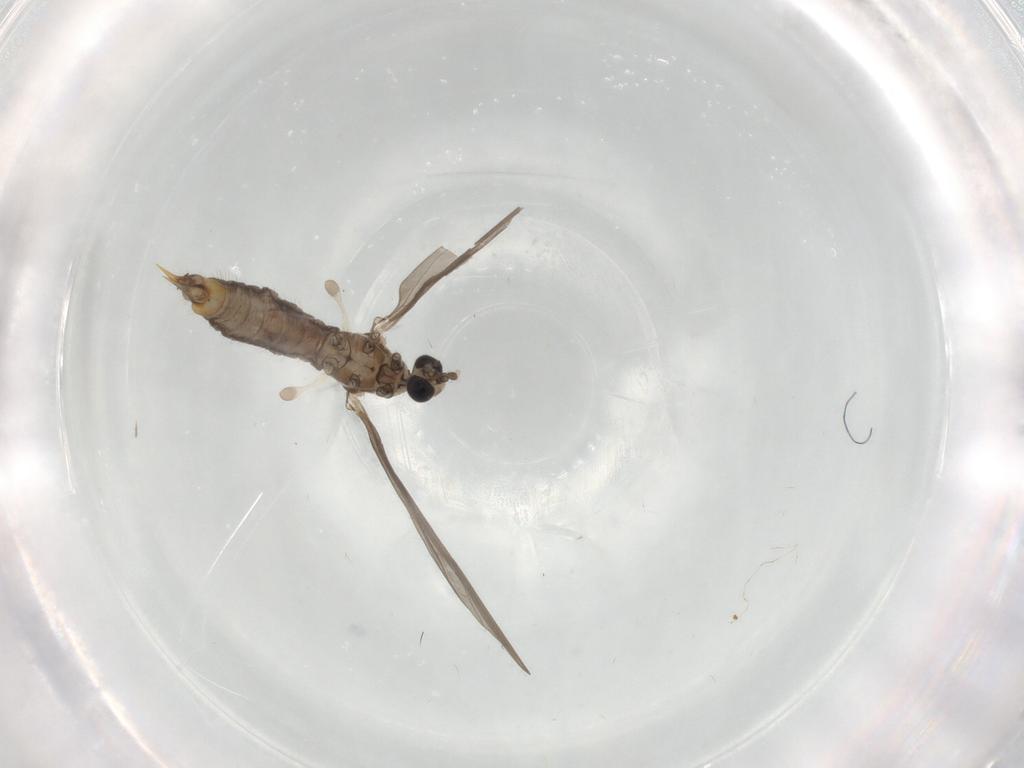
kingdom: Animalia
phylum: Arthropoda
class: Insecta
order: Diptera
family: Limoniidae
